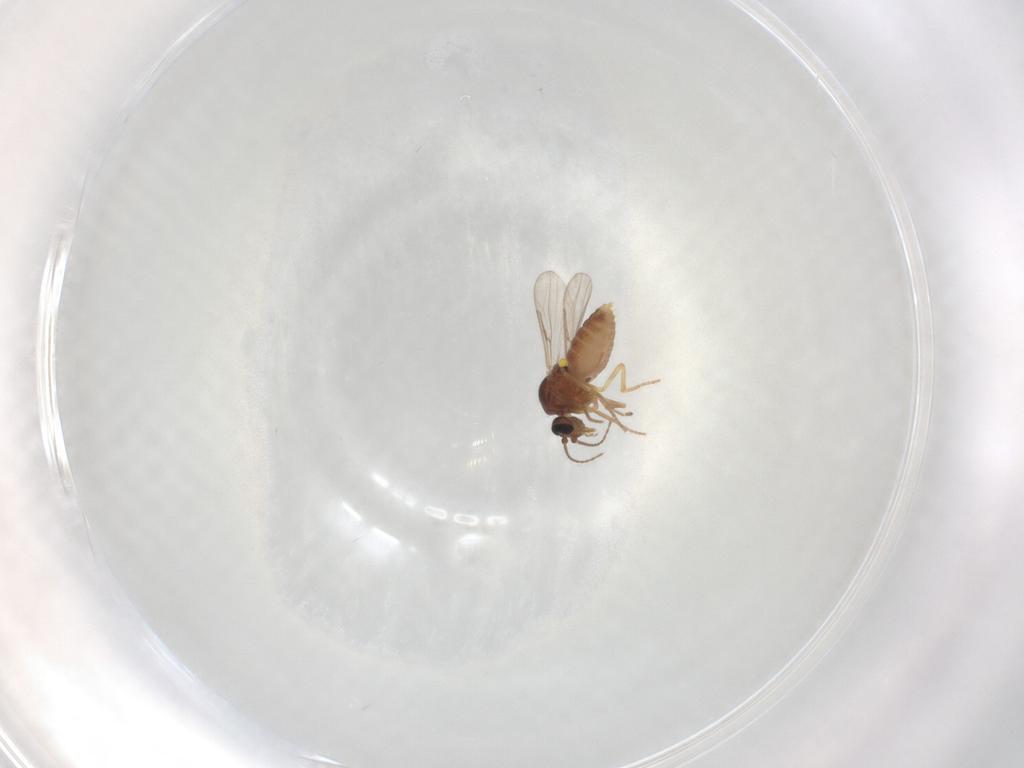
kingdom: Animalia
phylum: Arthropoda
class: Insecta
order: Diptera
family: Ceratopogonidae
